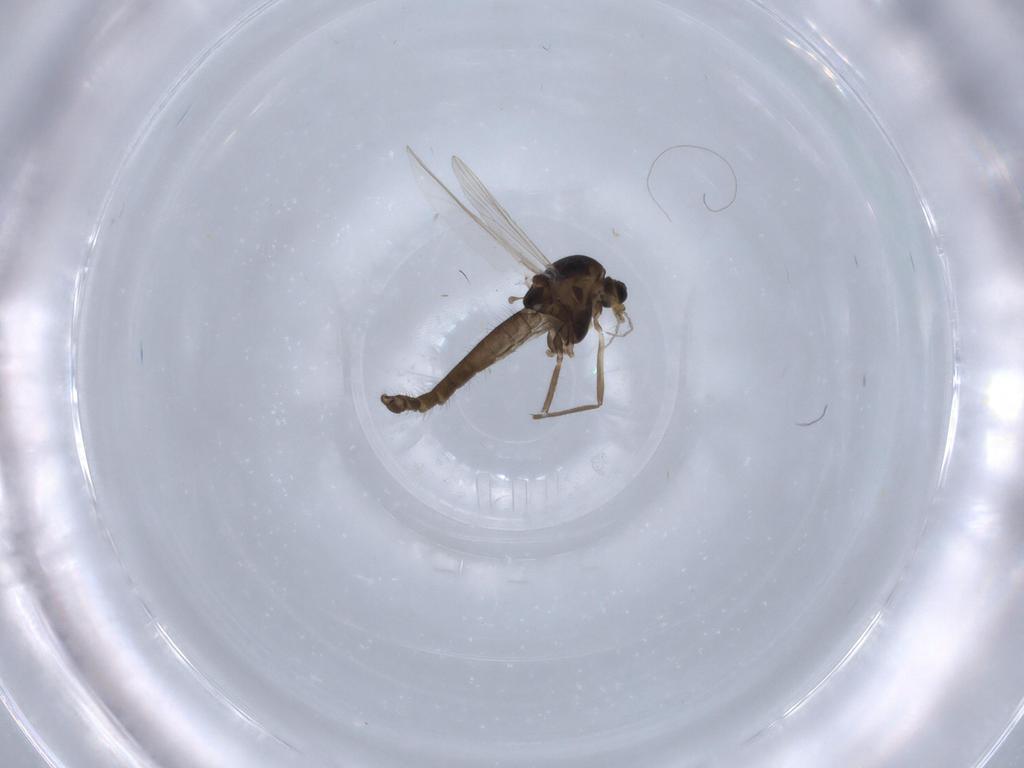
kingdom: Animalia
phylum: Arthropoda
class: Insecta
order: Diptera
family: Chironomidae
